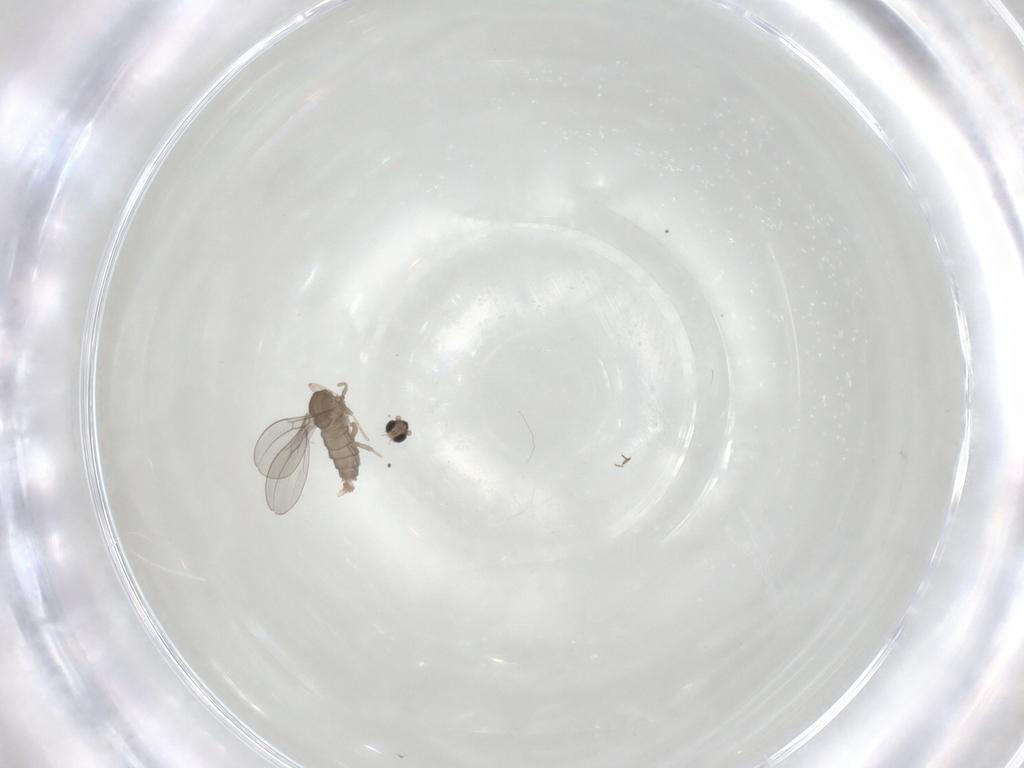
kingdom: Animalia
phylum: Arthropoda
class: Insecta
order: Diptera
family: Cecidomyiidae
